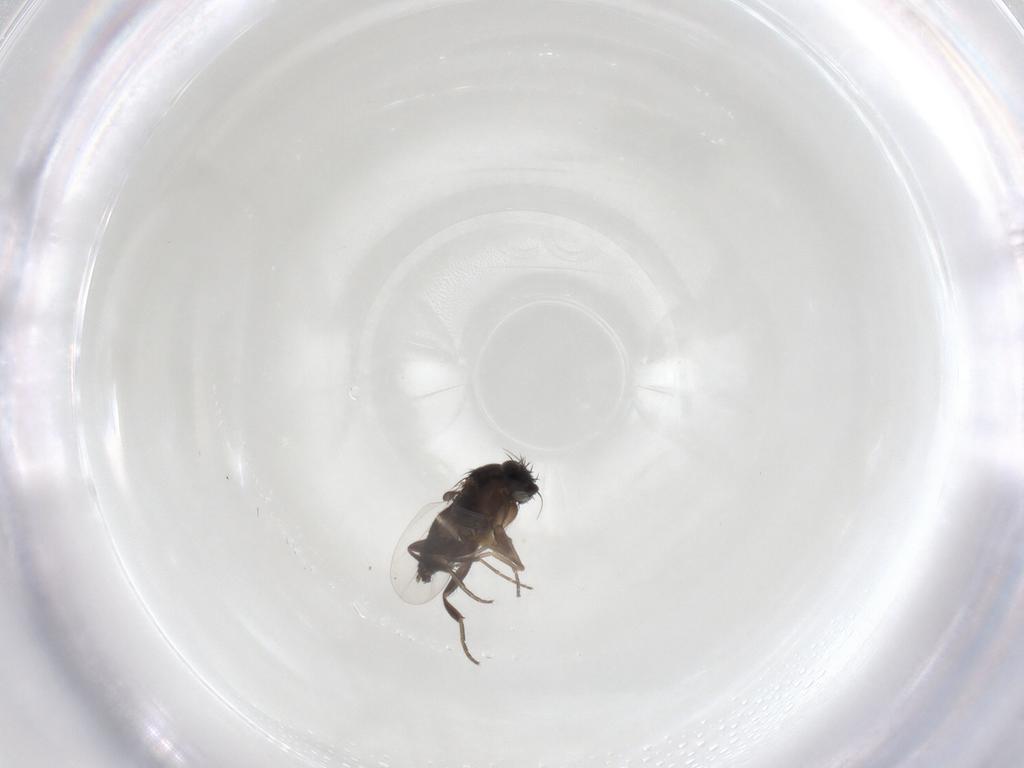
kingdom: Animalia
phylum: Arthropoda
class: Insecta
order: Diptera
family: Phoridae
